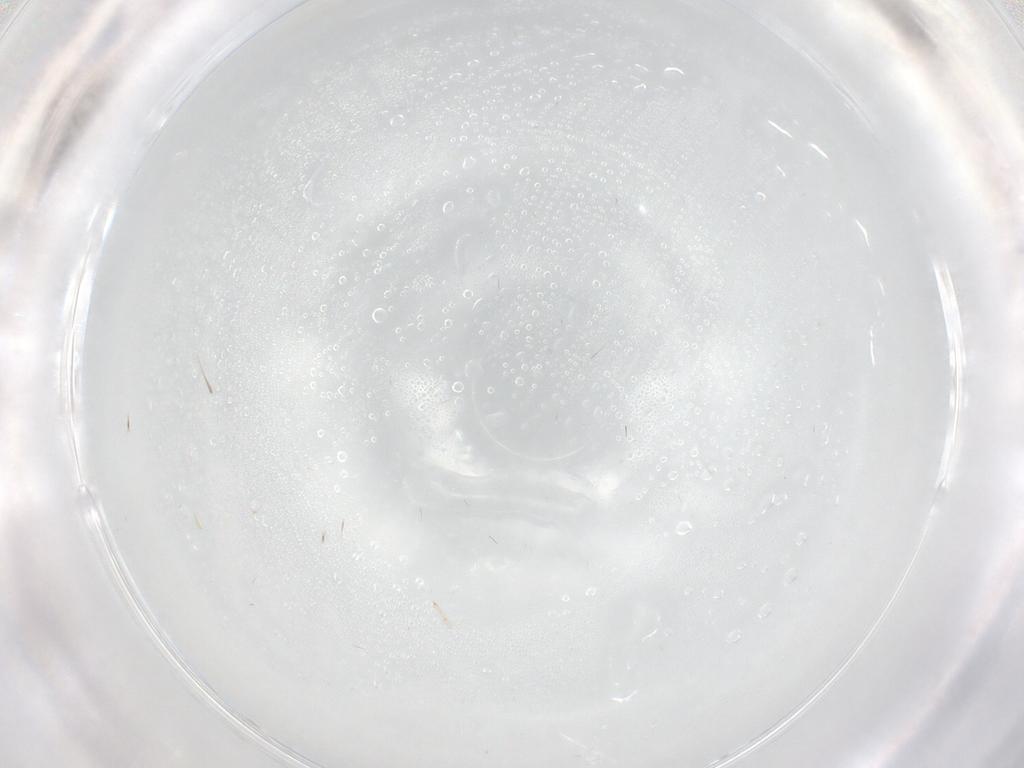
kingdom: Animalia
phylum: Arthropoda
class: Insecta
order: Diptera
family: Cecidomyiidae
